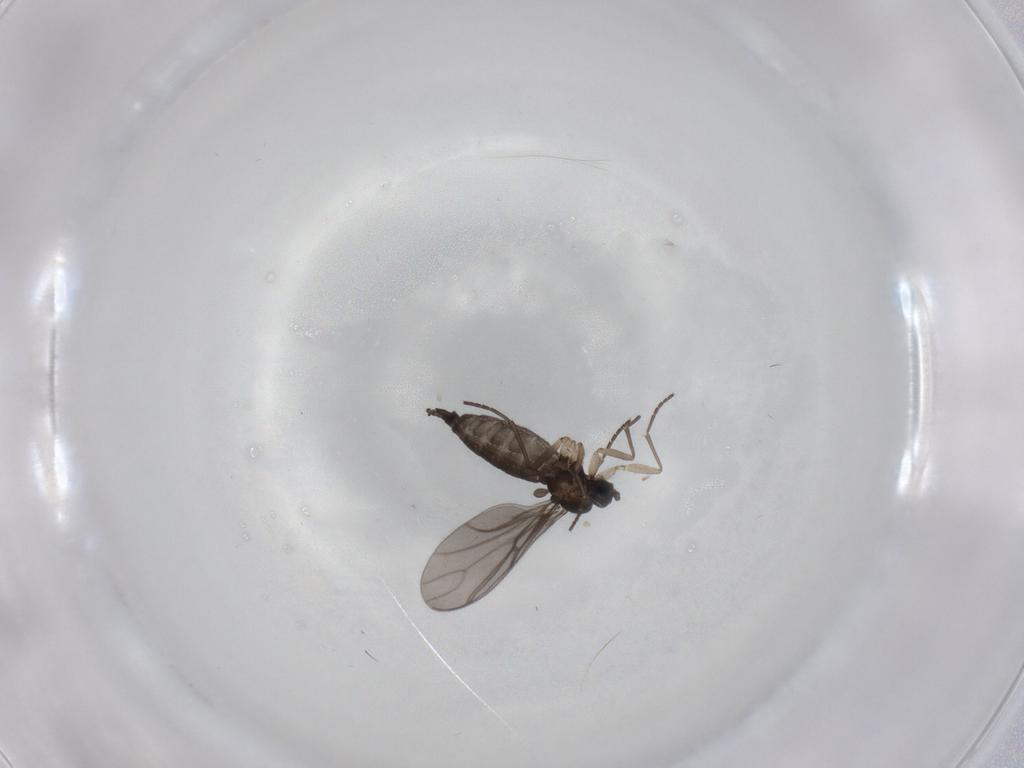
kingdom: Animalia
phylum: Arthropoda
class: Insecta
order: Diptera
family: Sciaridae
